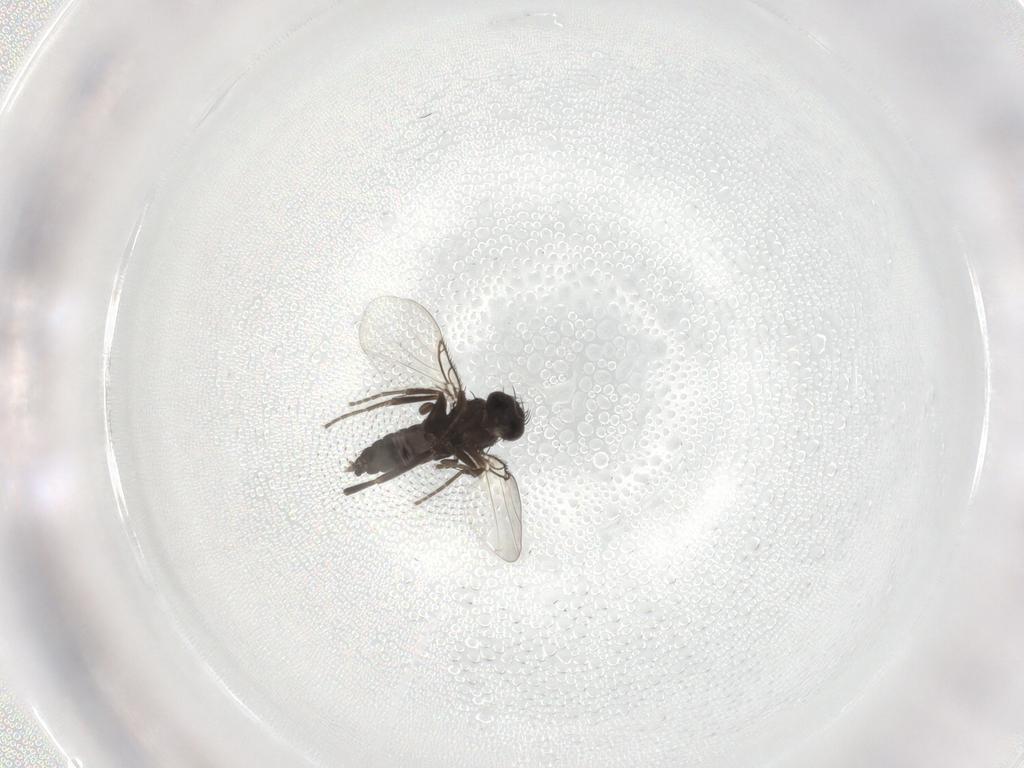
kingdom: Animalia
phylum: Arthropoda
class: Insecta
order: Diptera
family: Phoridae
